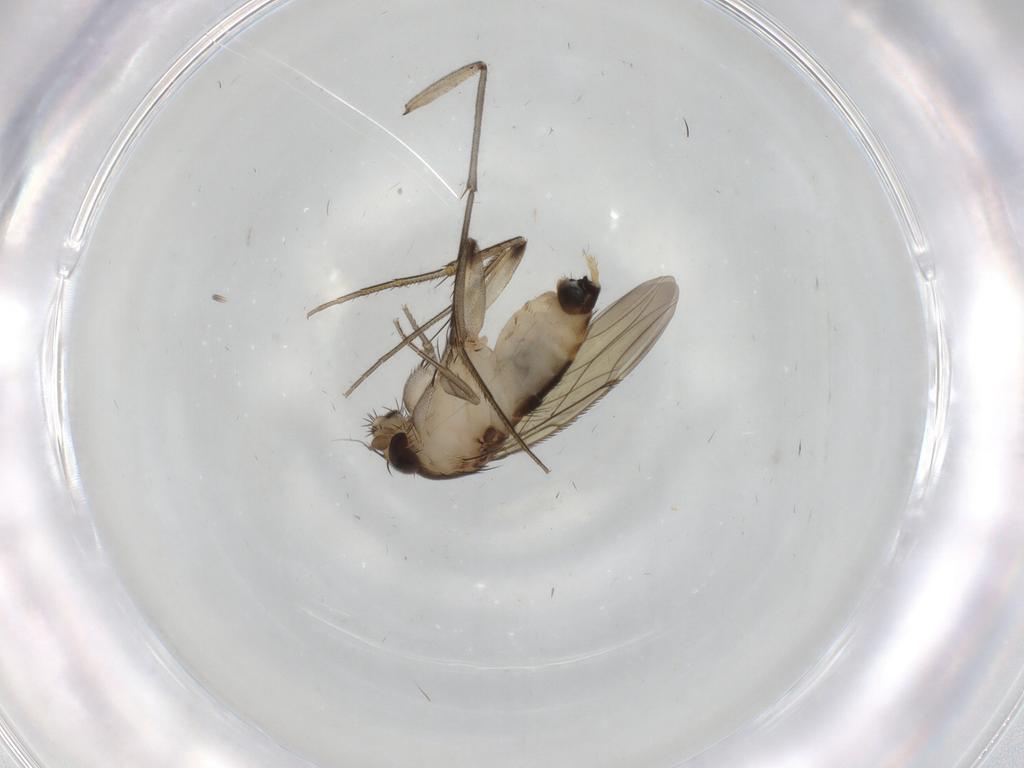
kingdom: Animalia
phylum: Arthropoda
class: Insecta
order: Diptera
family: Phoridae
